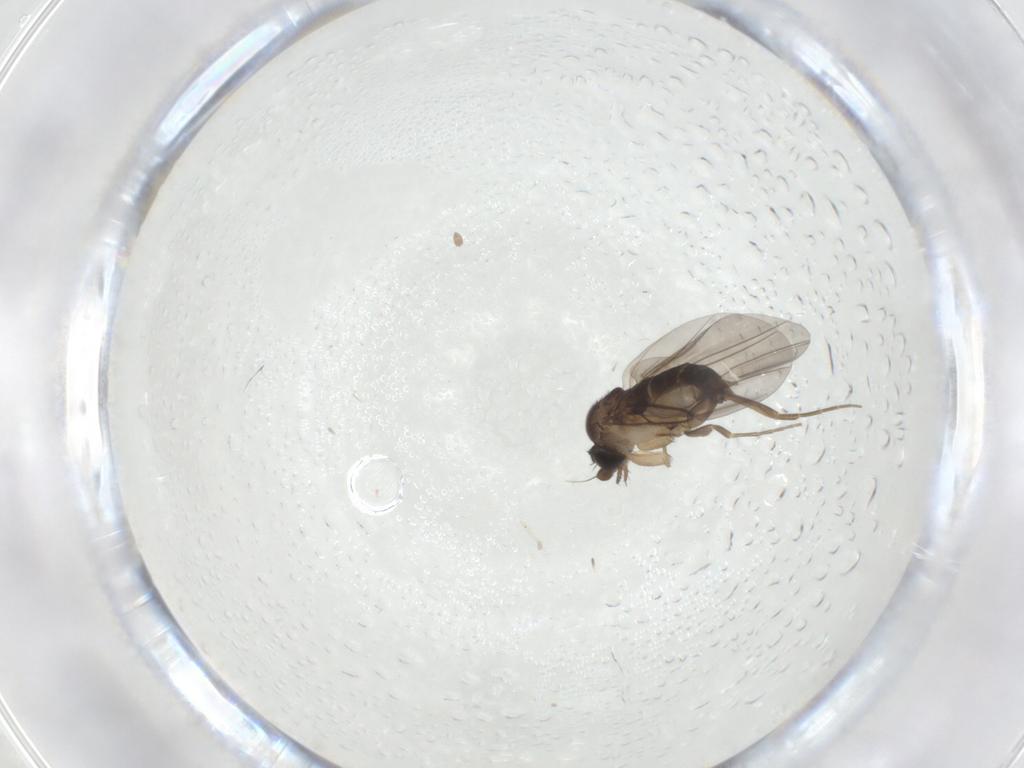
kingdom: Animalia
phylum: Arthropoda
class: Insecta
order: Diptera
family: Phoridae
